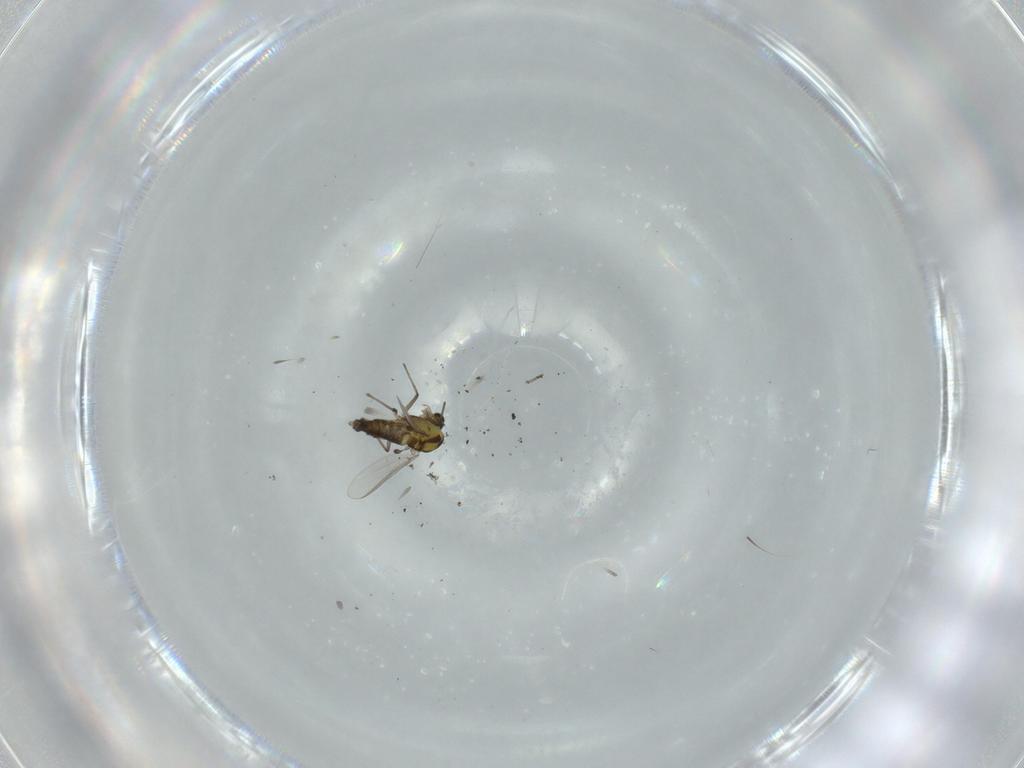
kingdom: Animalia
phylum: Arthropoda
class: Insecta
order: Diptera
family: Chironomidae
